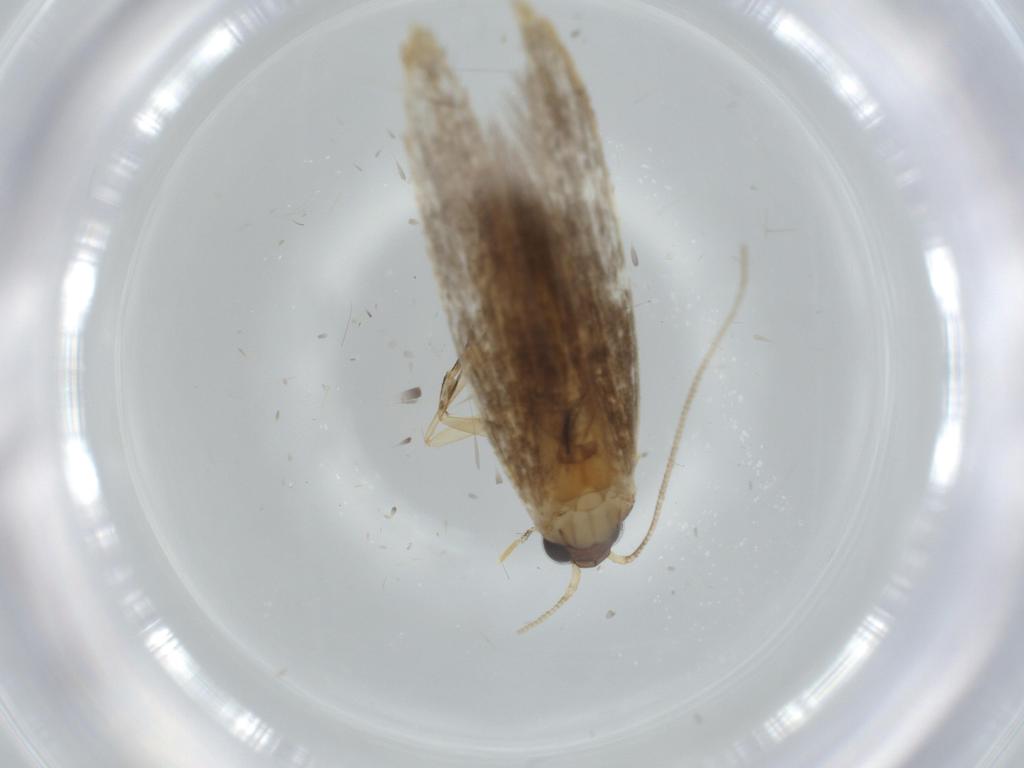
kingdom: Animalia
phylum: Arthropoda
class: Insecta
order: Lepidoptera
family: Tineidae
